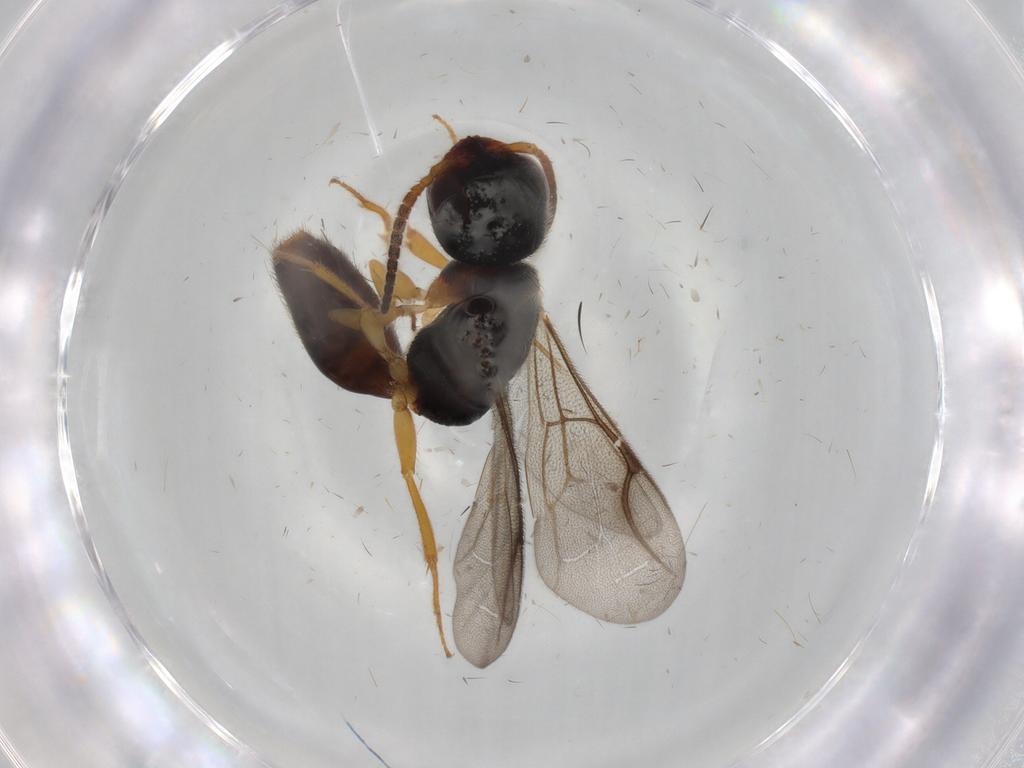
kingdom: Animalia
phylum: Arthropoda
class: Insecta
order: Hymenoptera
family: Bethylidae
